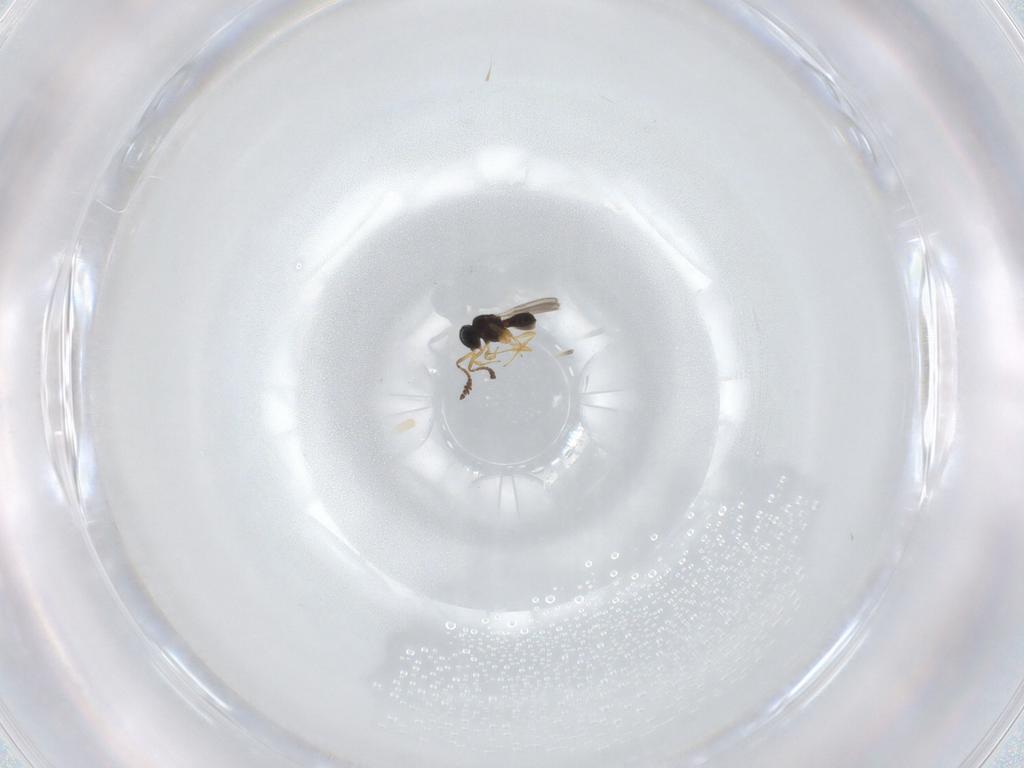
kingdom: Animalia
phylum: Arthropoda
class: Insecta
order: Hymenoptera
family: Scelionidae
